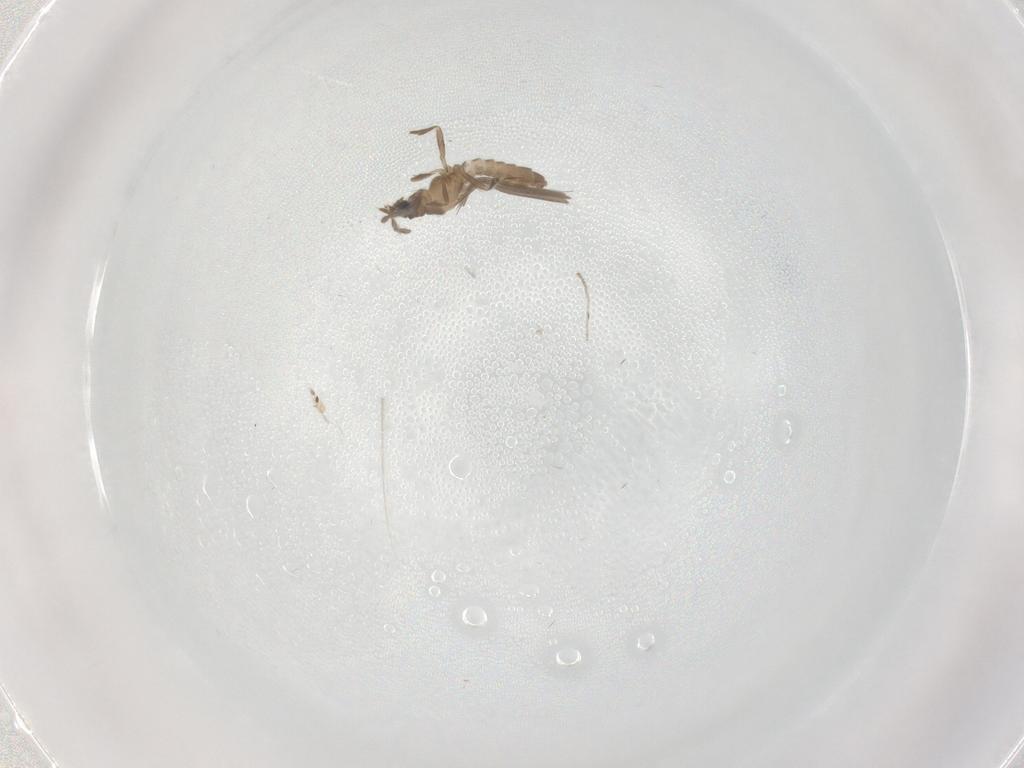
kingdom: Animalia
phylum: Arthropoda
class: Insecta
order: Hemiptera
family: Enicocephalidae
